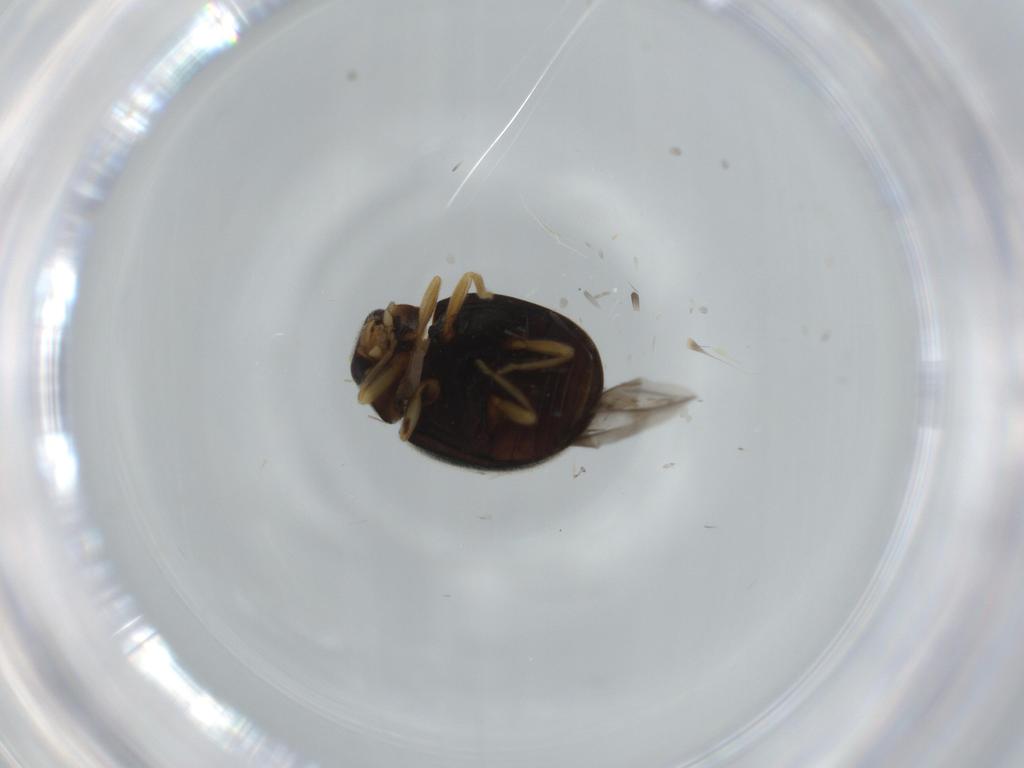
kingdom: Animalia
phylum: Arthropoda
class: Insecta
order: Coleoptera
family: Coccinellidae
